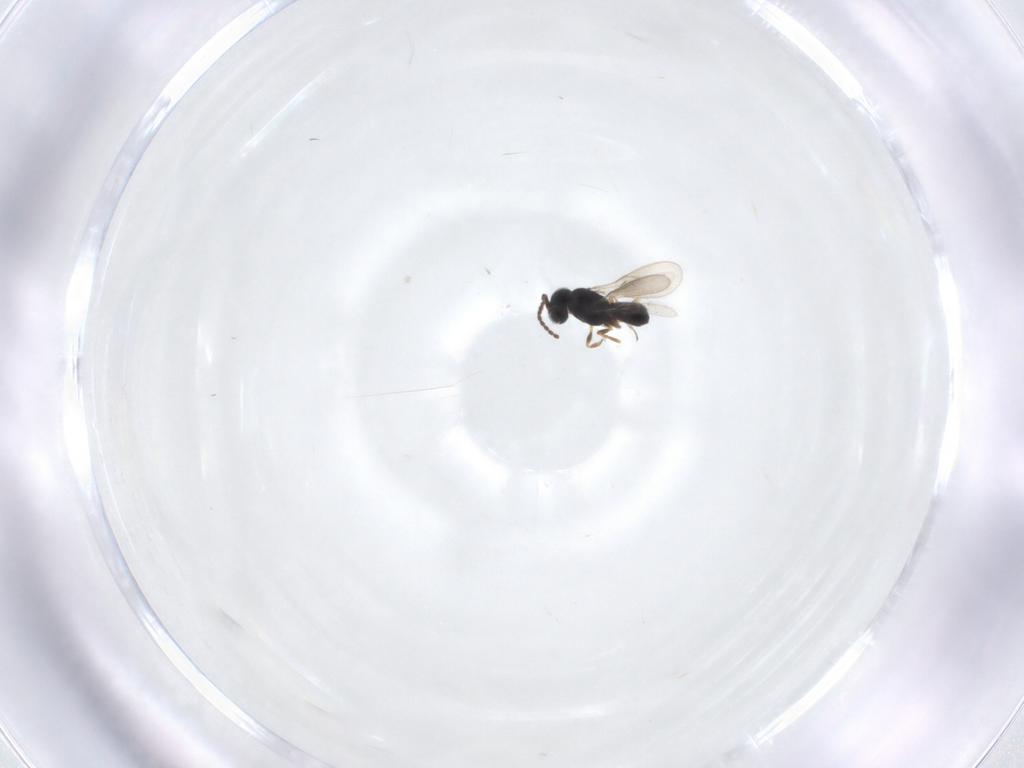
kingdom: Animalia
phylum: Arthropoda
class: Insecta
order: Hymenoptera
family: Scelionidae
